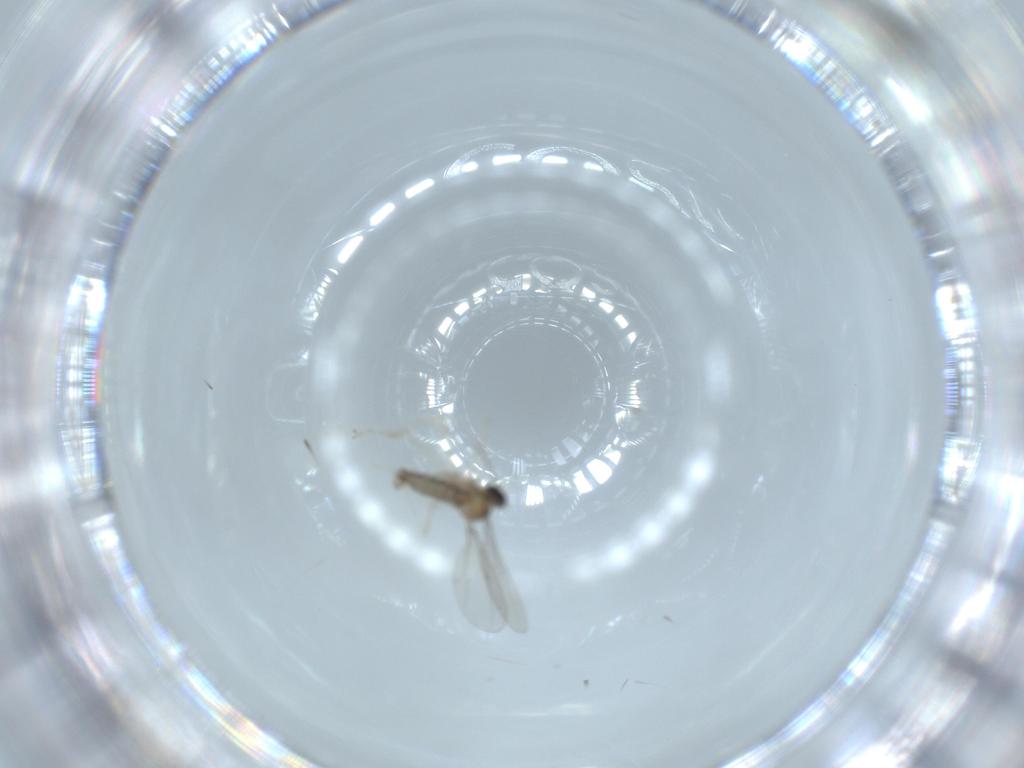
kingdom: Animalia
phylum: Arthropoda
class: Insecta
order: Diptera
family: Cecidomyiidae
